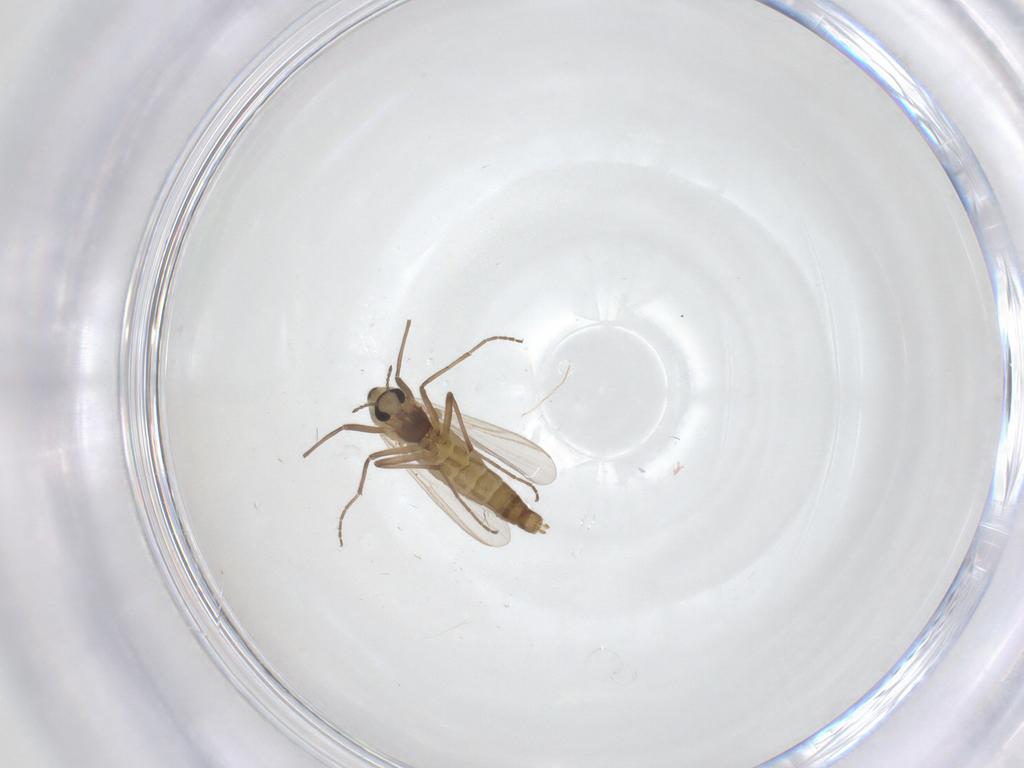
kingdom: Animalia
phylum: Arthropoda
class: Insecta
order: Diptera
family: Chironomidae
